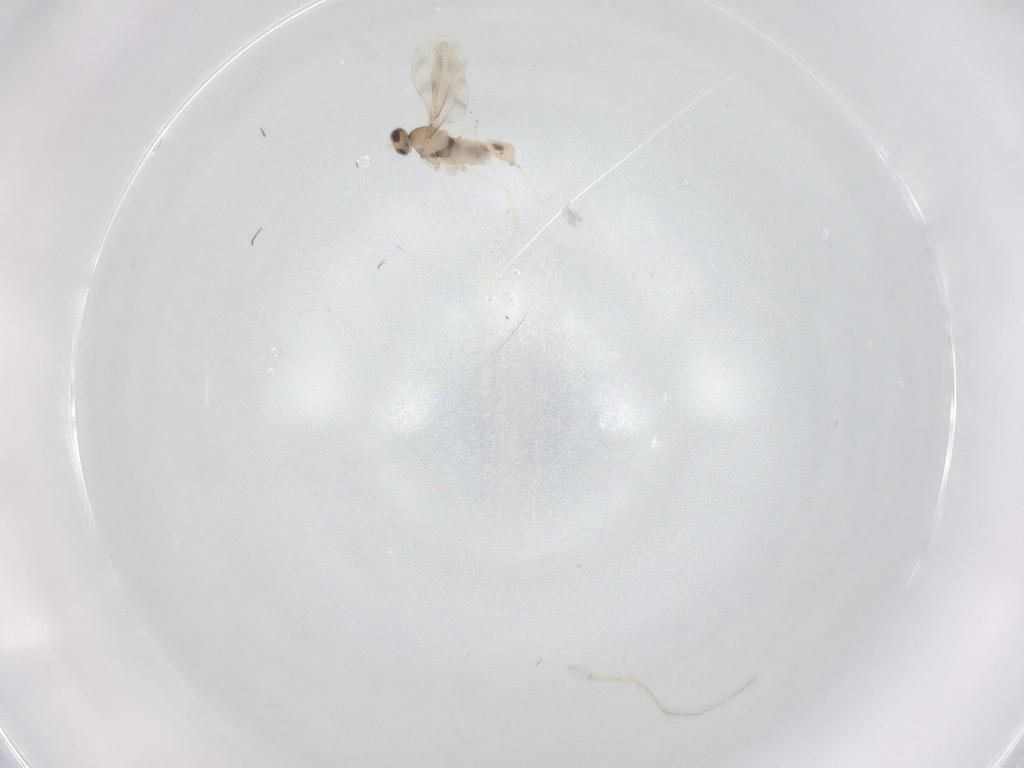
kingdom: Animalia
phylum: Arthropoda
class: Insecta
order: Diptera
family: Cecidomyiidae
